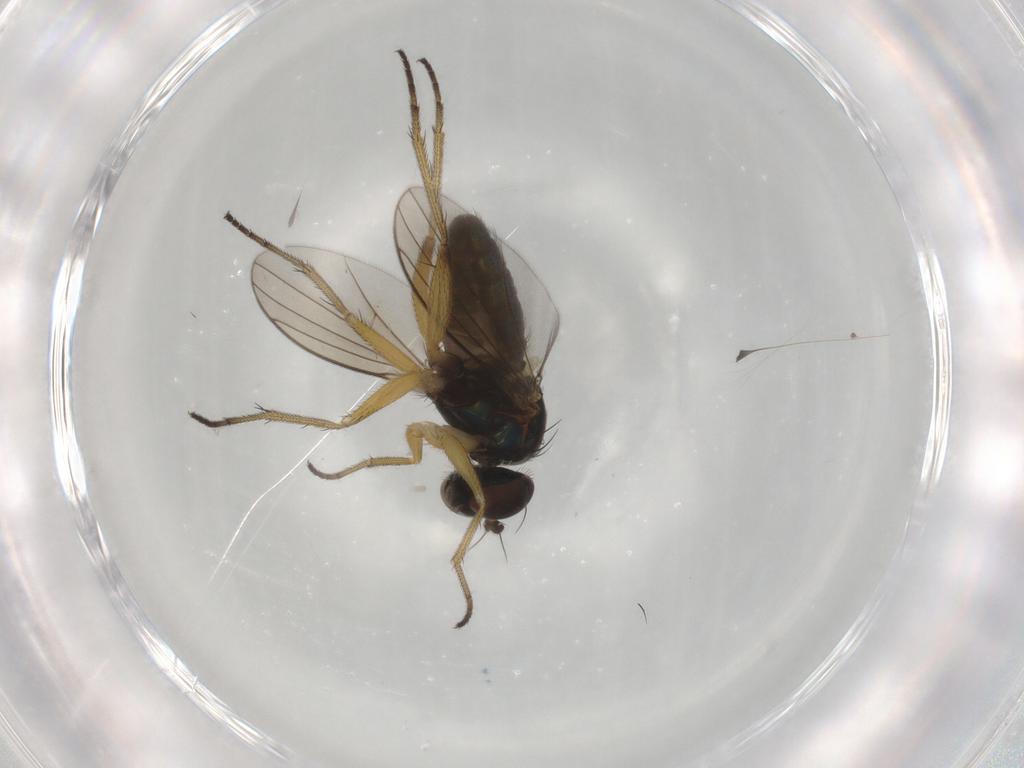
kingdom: Animalia
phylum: Arthropoda
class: Insecta
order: Diptera
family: Dolichopodidae
